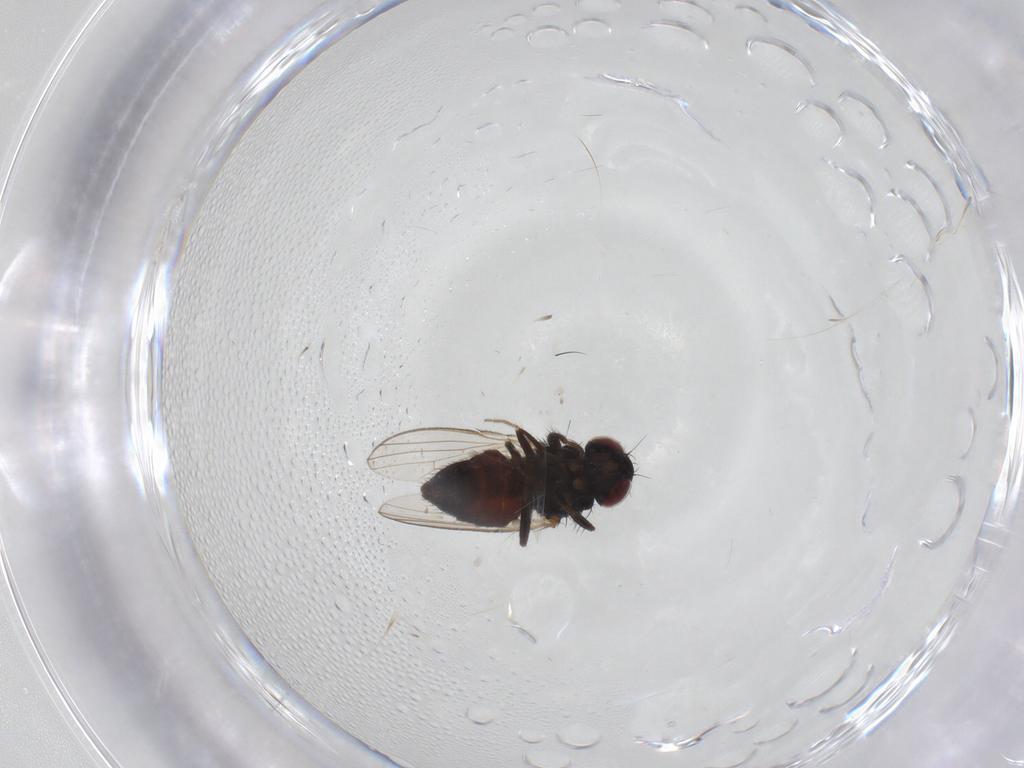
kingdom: Animalia
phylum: Arthropoda
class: Insecta
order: Diptera
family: Carnidae
